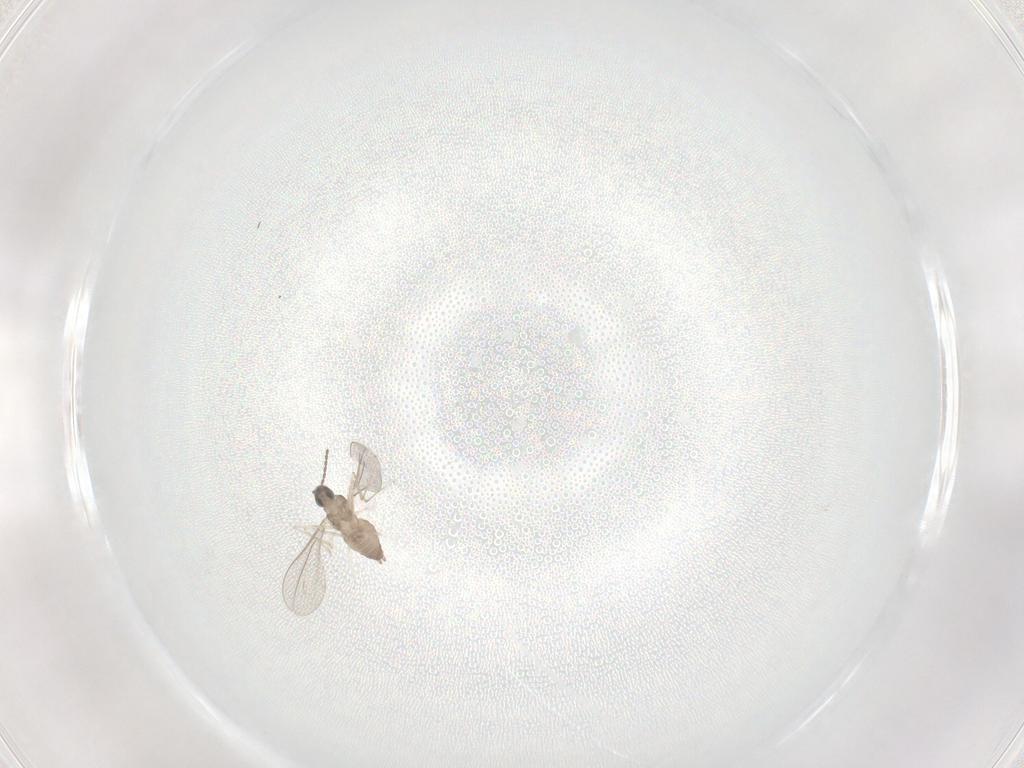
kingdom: Animalia
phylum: Arthropoda
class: Insecta
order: Diptera
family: Cecidomyiidae
